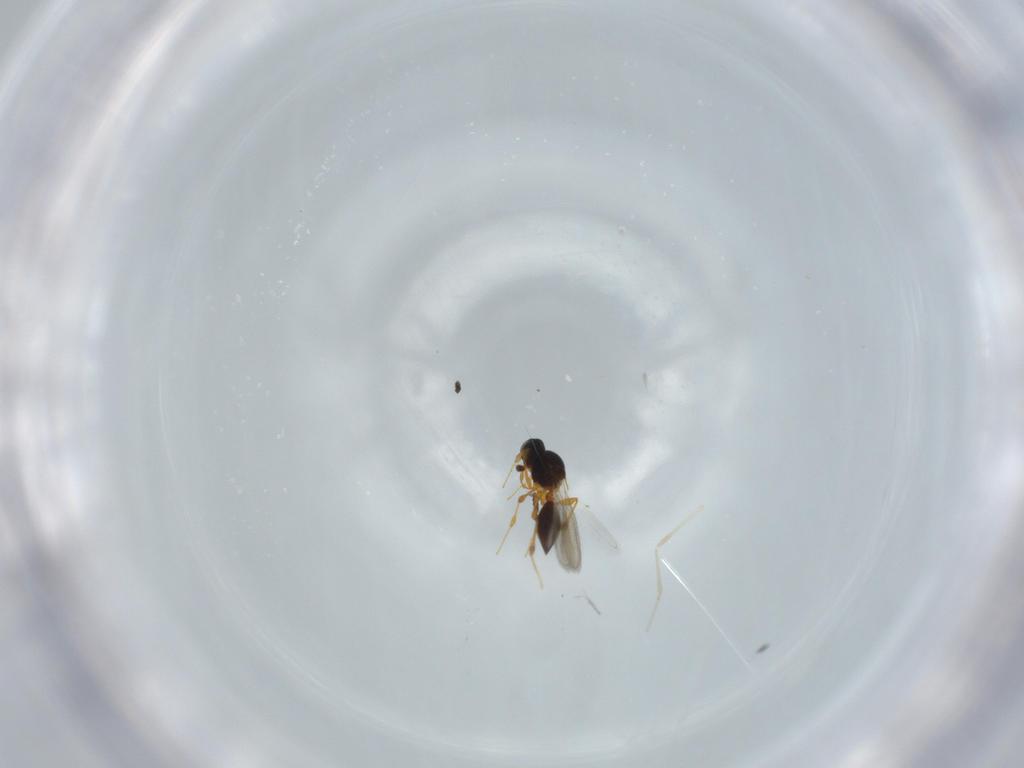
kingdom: Animalia
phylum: Arthropoda
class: Insecta
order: Hymenoptera
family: Platygastridae
